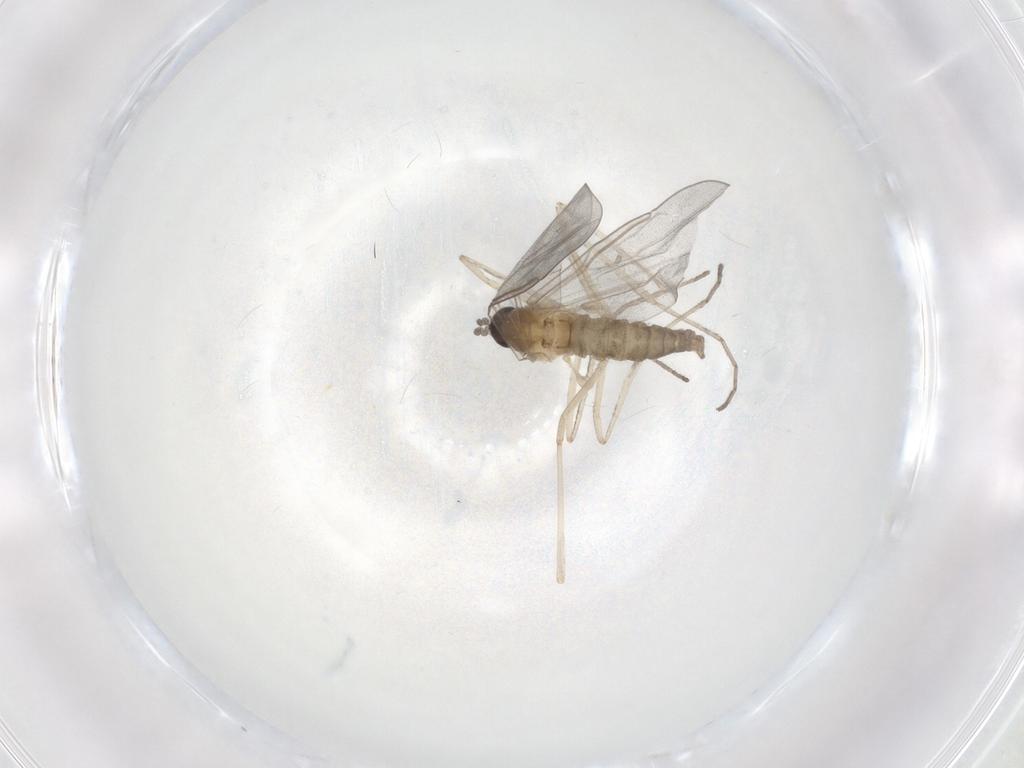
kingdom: Animalia
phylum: Arthropoda
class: Insecta
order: Diptera
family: Cecidomyiidae
